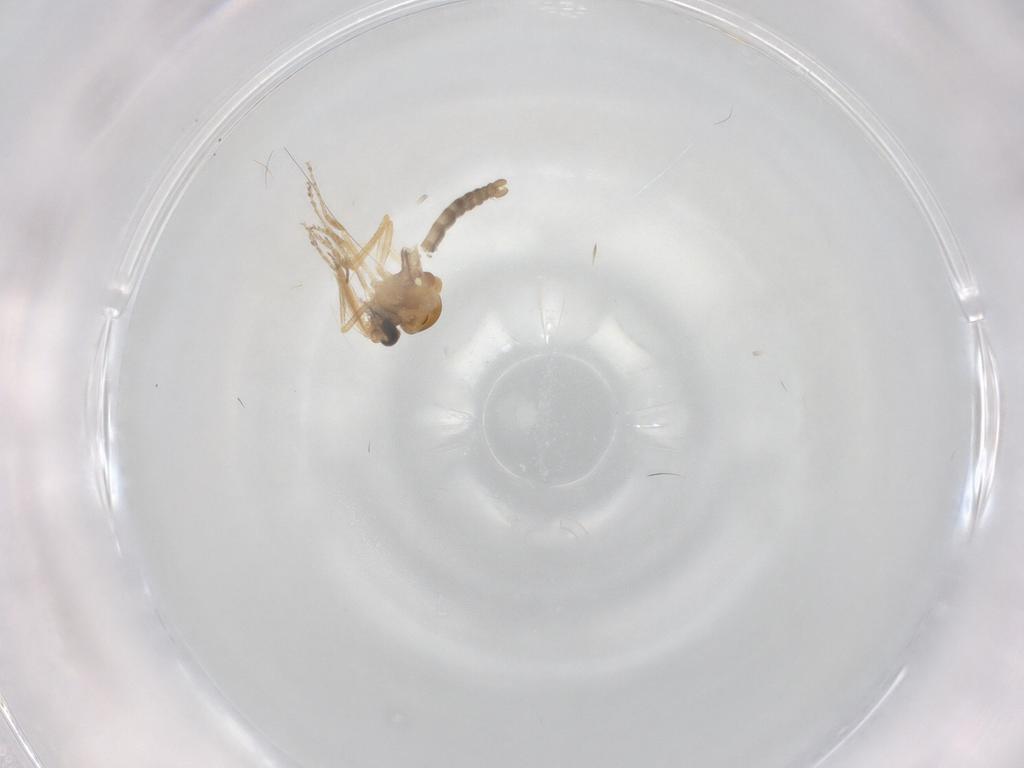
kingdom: Animalia
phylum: Arthropoda
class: Insecta
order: Diptera
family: Ceratopogonidae
